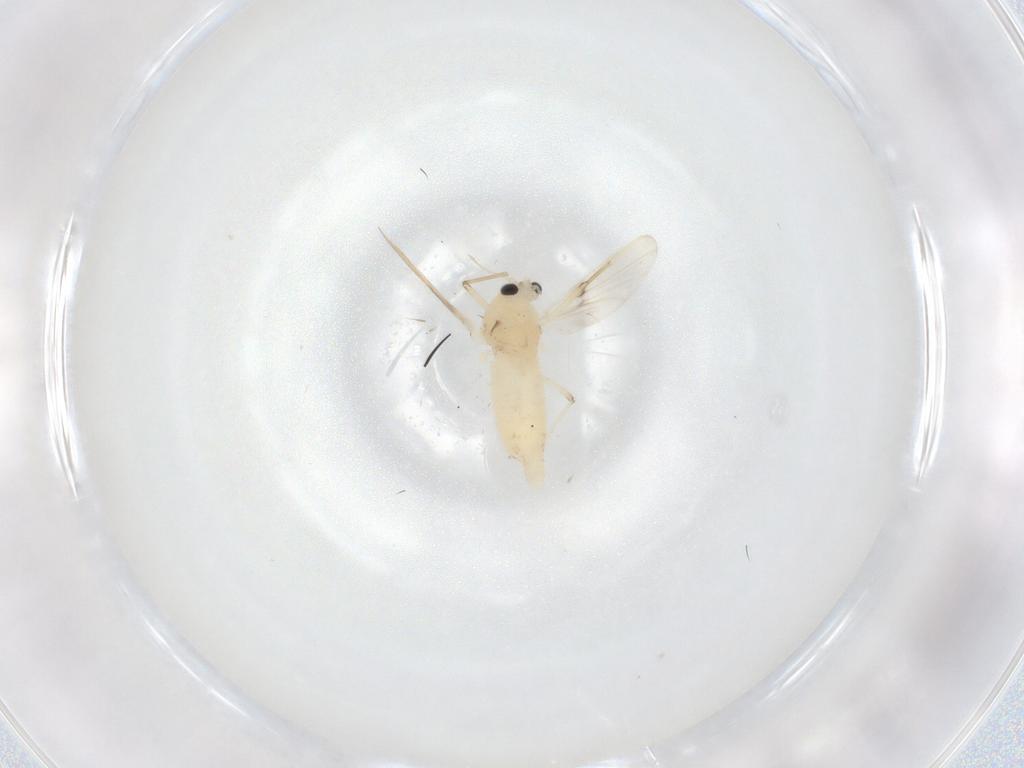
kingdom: Animalia
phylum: Arthropoda
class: Insecta
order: Diptera
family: Chironomidae
